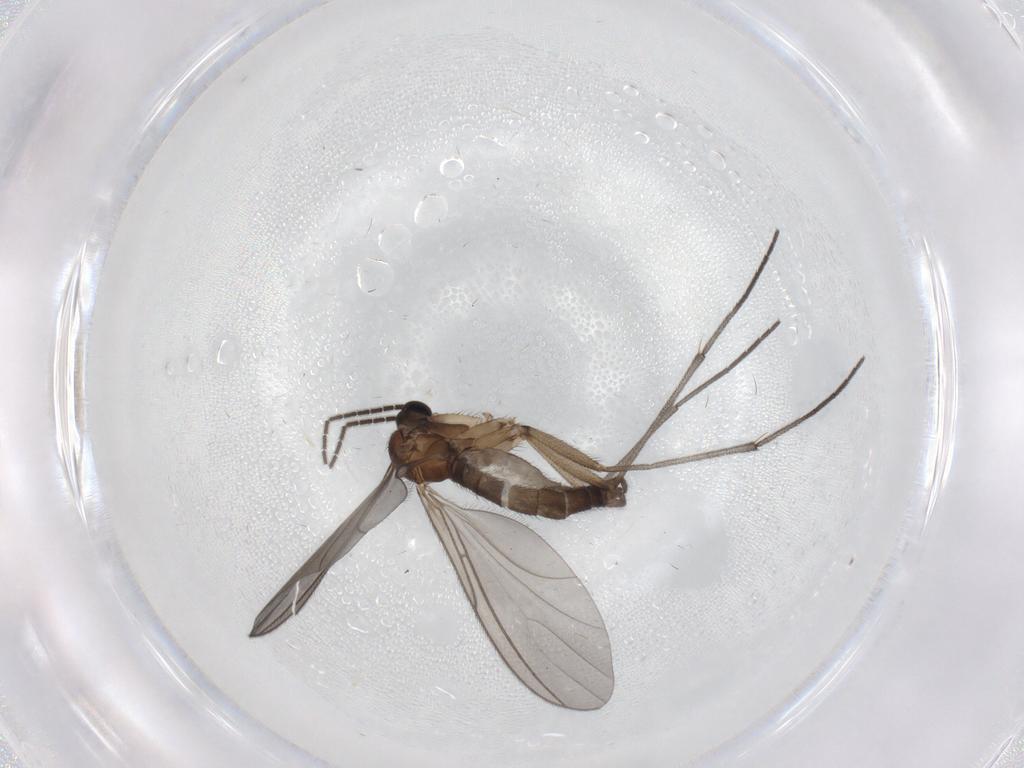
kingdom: Animalia
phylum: Arthropoda
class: Insecta
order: Diptera
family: Sciaridae
